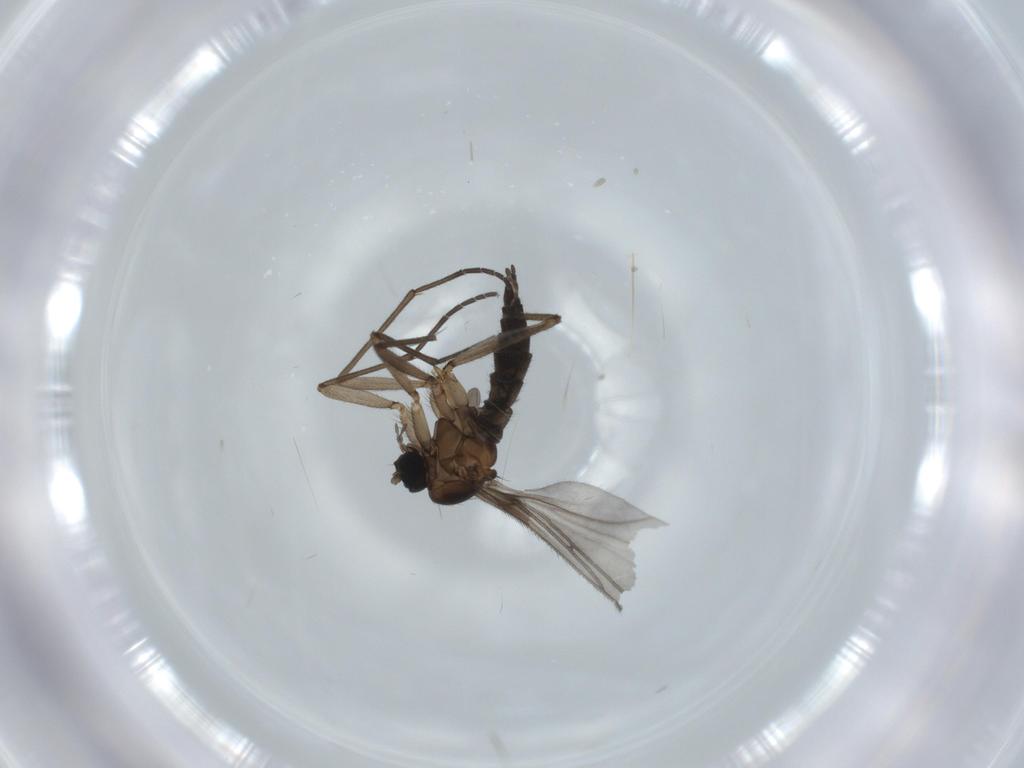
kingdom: Animalia
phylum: Arthropoda
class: Insecta
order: Diptera
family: Sciaridae
